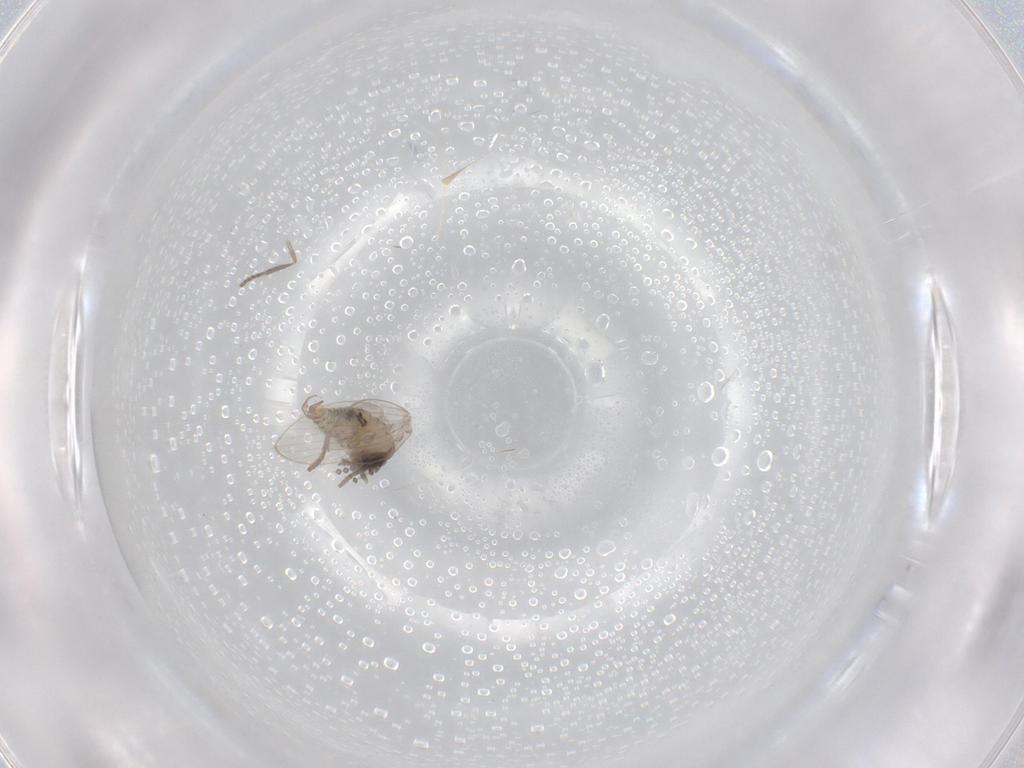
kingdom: Animalia
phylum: Arthropoda
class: Insecta
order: Diptera
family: Psychodidae
